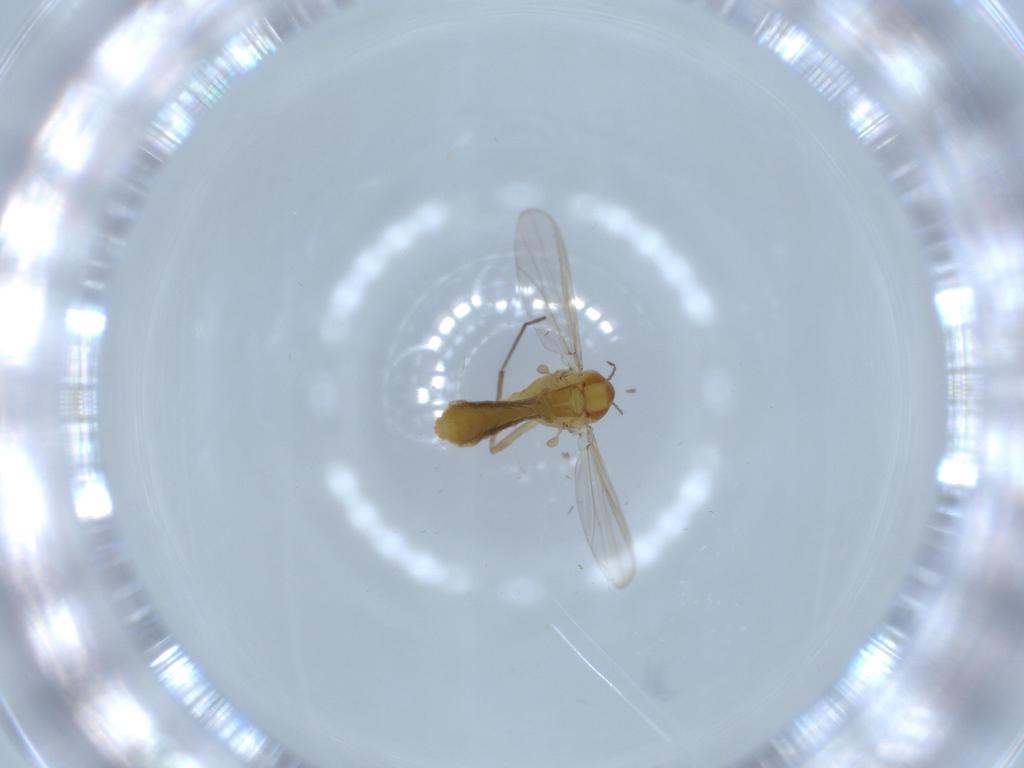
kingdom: Animalia
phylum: Arthropoda
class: Insecta
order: Diptera
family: Chironomidae
